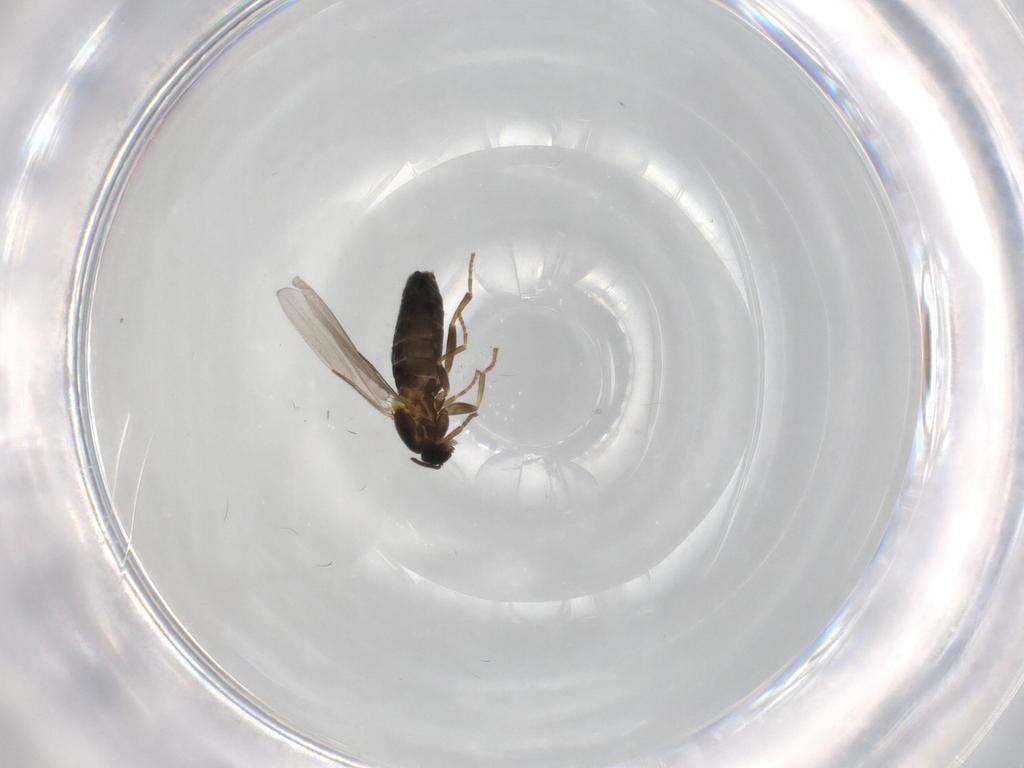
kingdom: Animalia
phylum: Arthropoda
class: Insecta
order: Diptera
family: Scatopsidae
